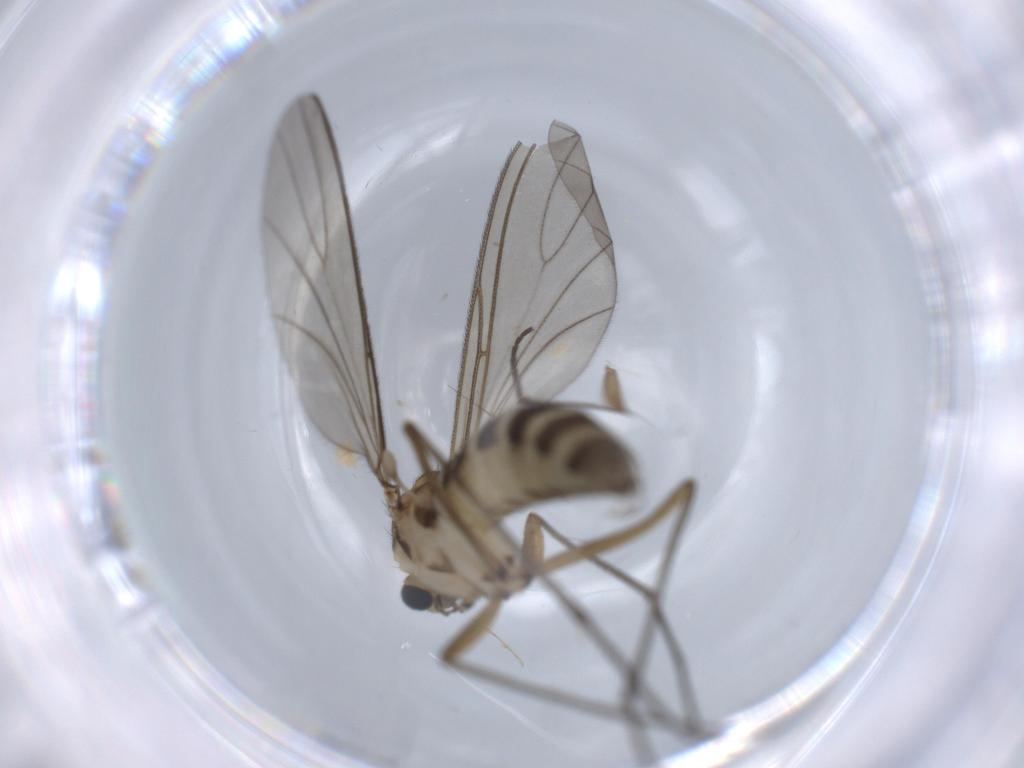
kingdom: Animalia
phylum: Arthropoda
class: Insecta
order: Diptera
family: Sciaridae
